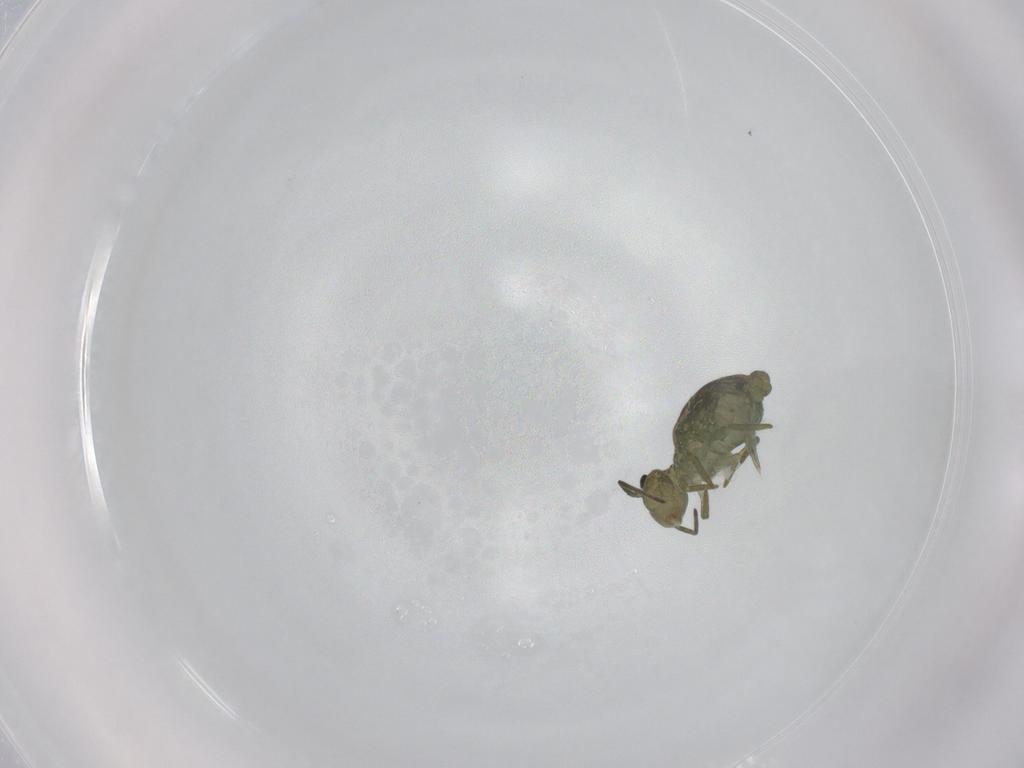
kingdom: Animalia
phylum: Arthropoda
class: Collembola
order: Symphypleona
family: Sminthuridae
